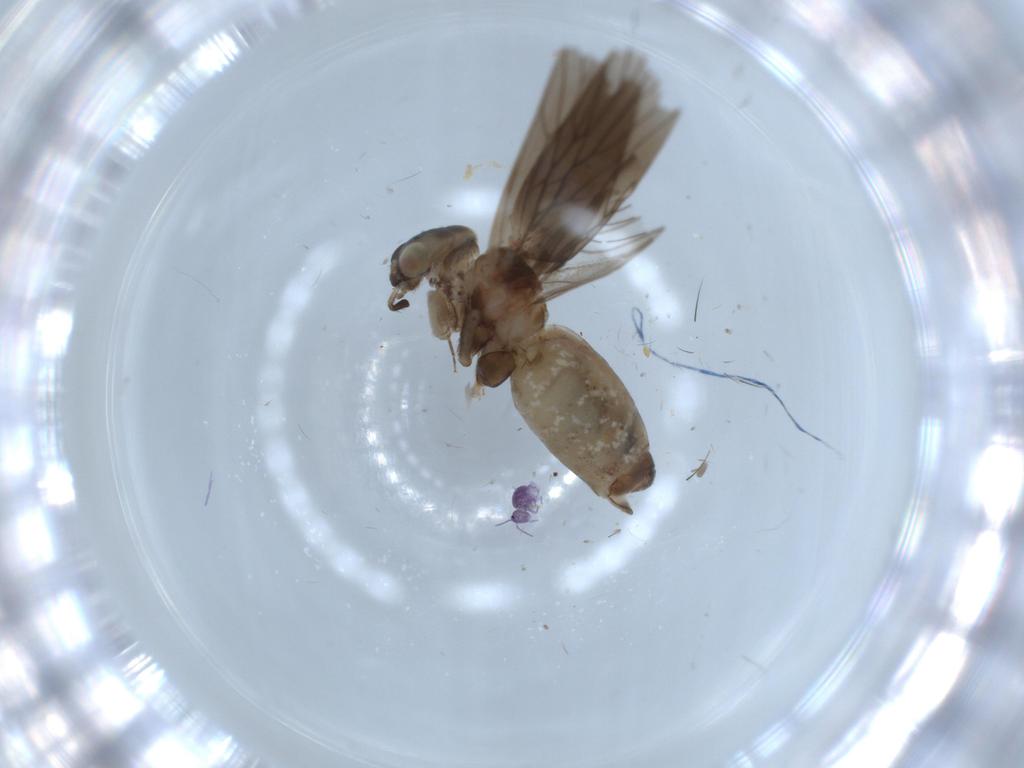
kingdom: Animalia
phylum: Arthropoda
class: Insecta
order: Psocodea
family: Lepidopsocidae
